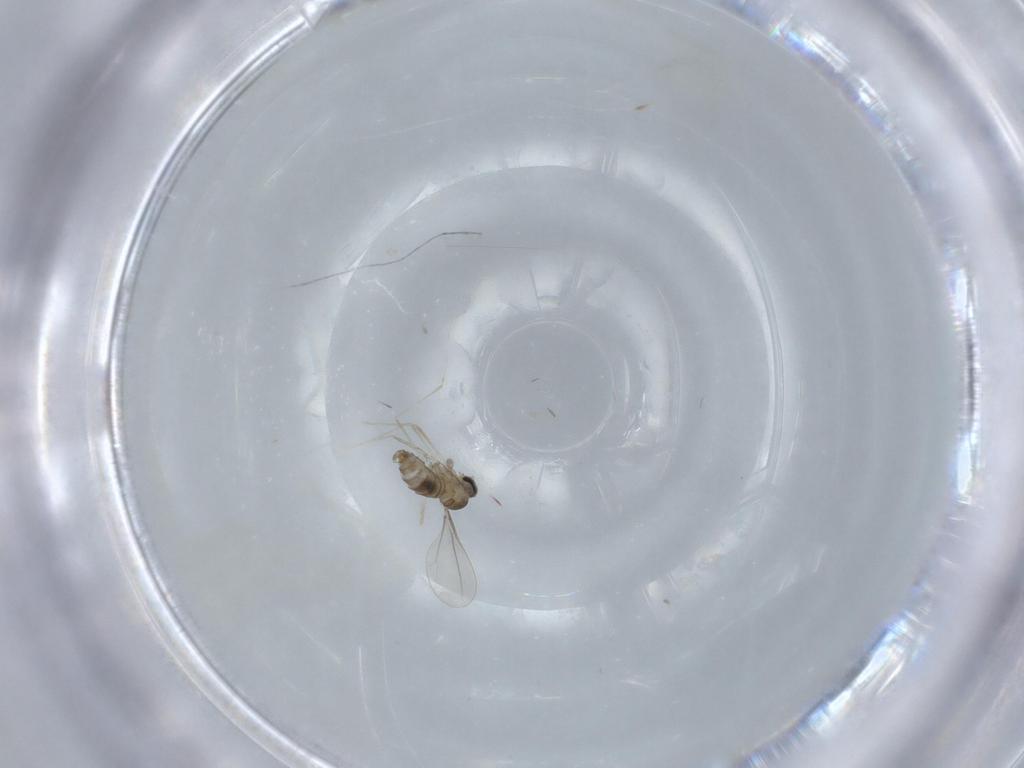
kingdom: Animalia
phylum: Arthropoda
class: Insecta
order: Diptera
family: Cecidomyiidae
